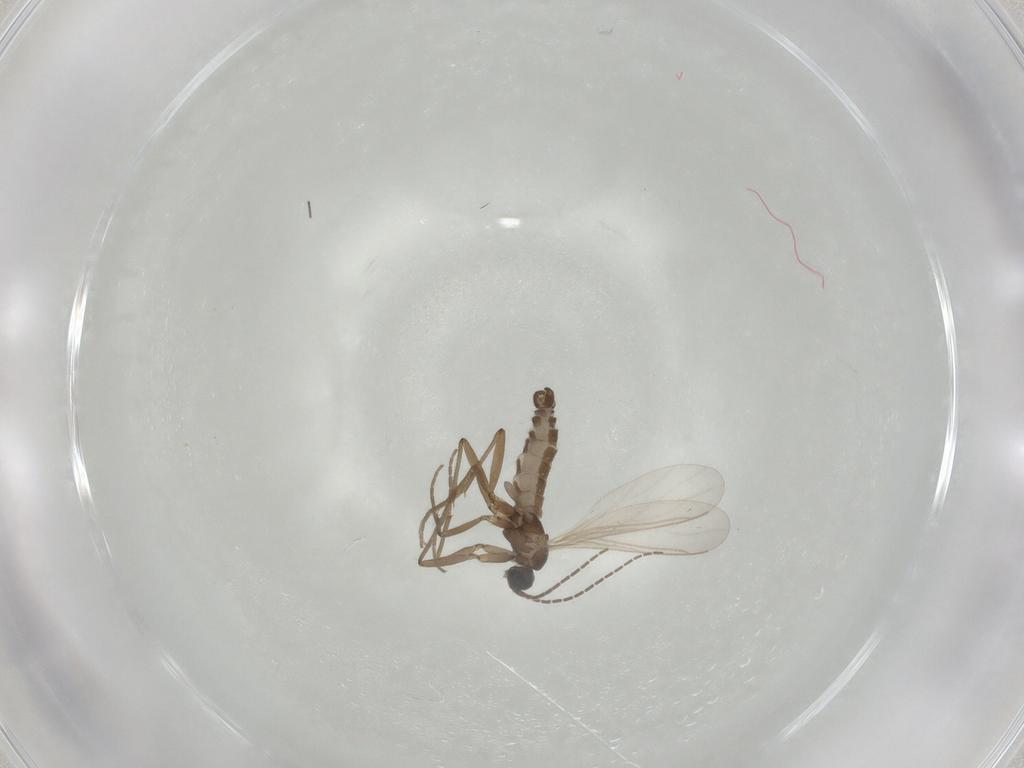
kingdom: Animalia
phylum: Arthropoda
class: Insecta
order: Diptera
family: Sciaridae
